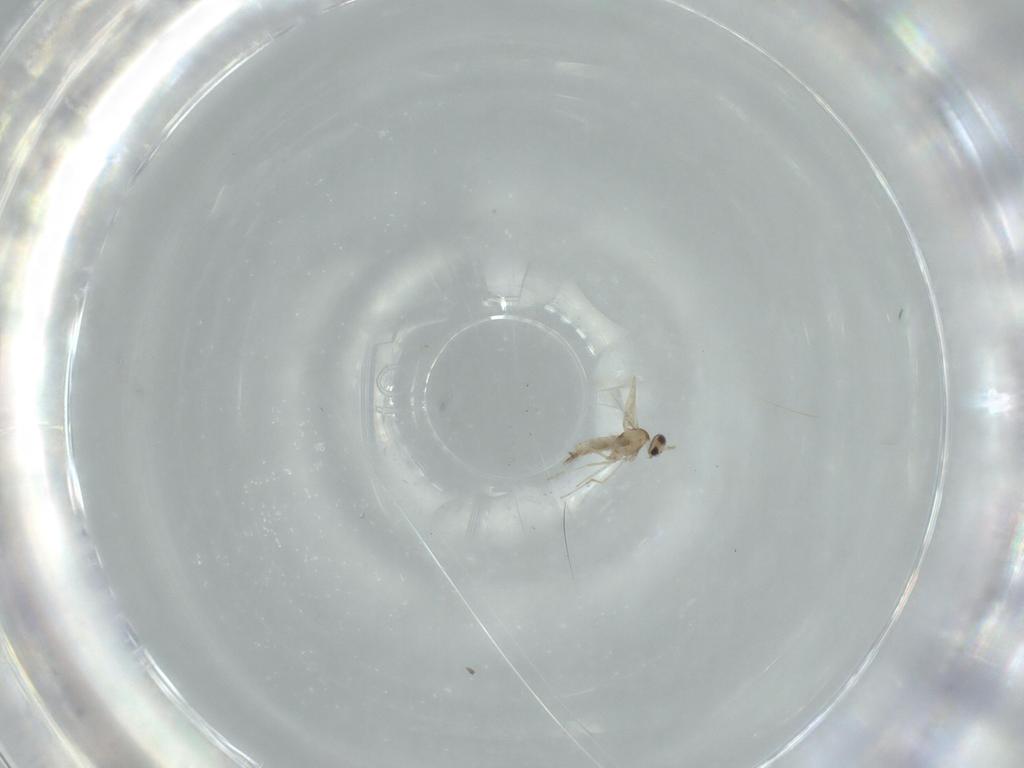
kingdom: Animalia
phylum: Arthropoda
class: Insecta
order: Diptera
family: Cecidomyiidae
